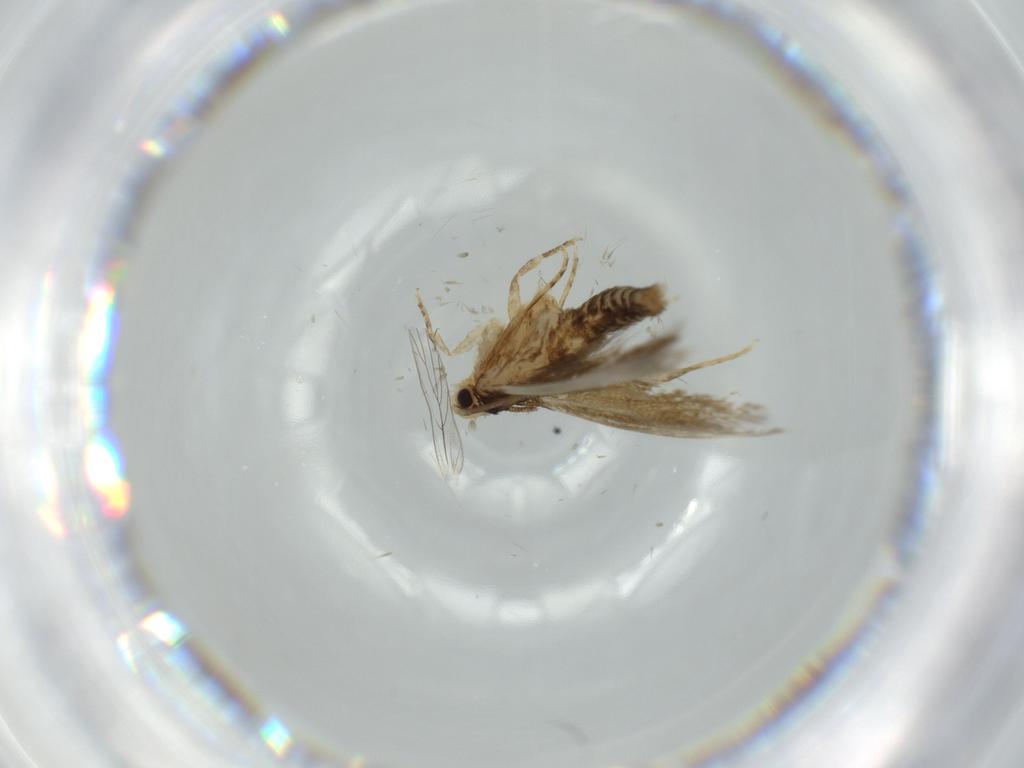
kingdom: Animalia
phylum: Arthropoda
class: Insecta
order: Lepidoptera
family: Tineidae
